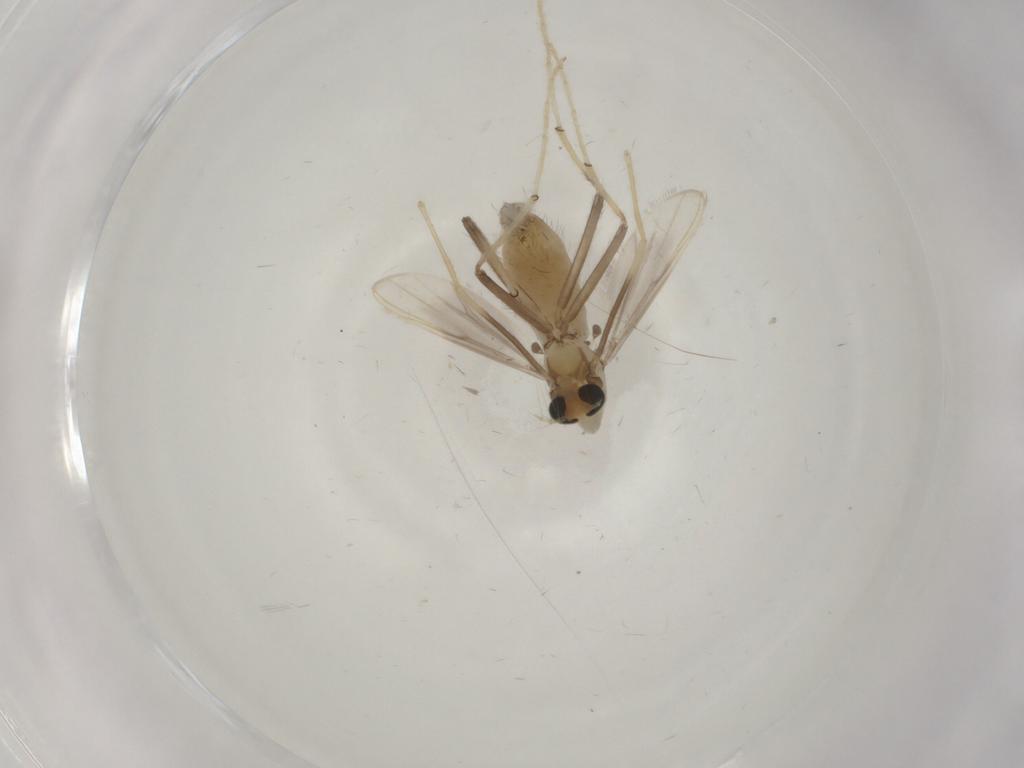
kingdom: Animalia
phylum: Arthropoda
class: Insecta
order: Diptera
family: Chironomidae
